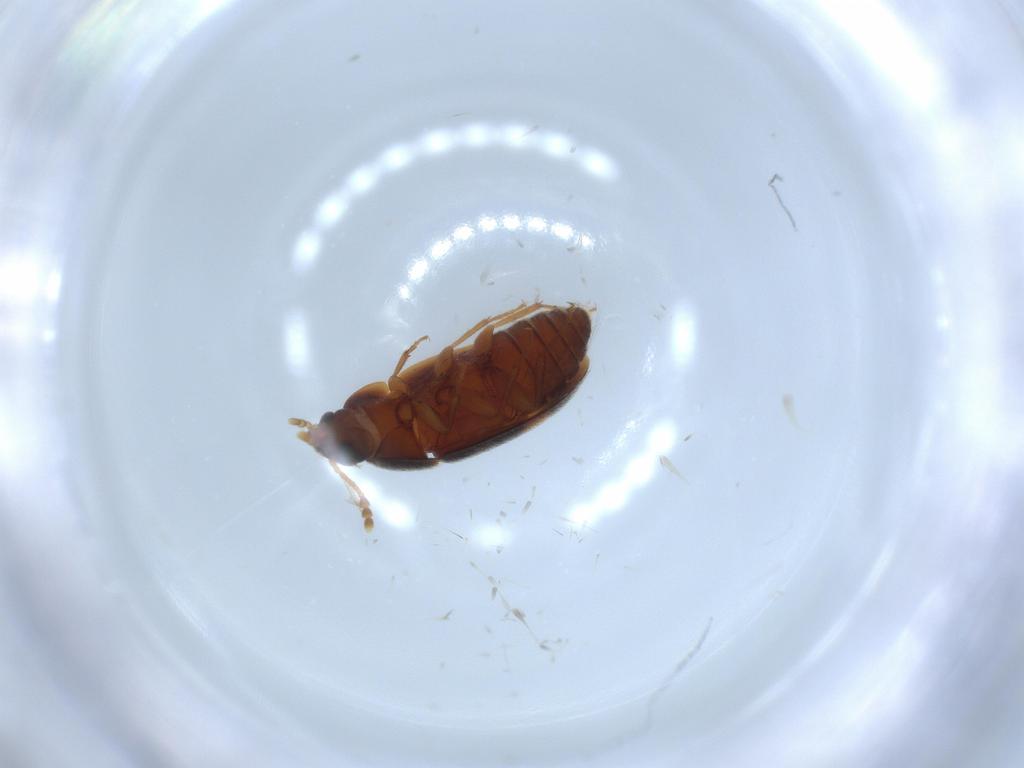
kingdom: Animalia
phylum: Arthropoda
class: Insecta
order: Coleoptera
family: Mycetophagidae
